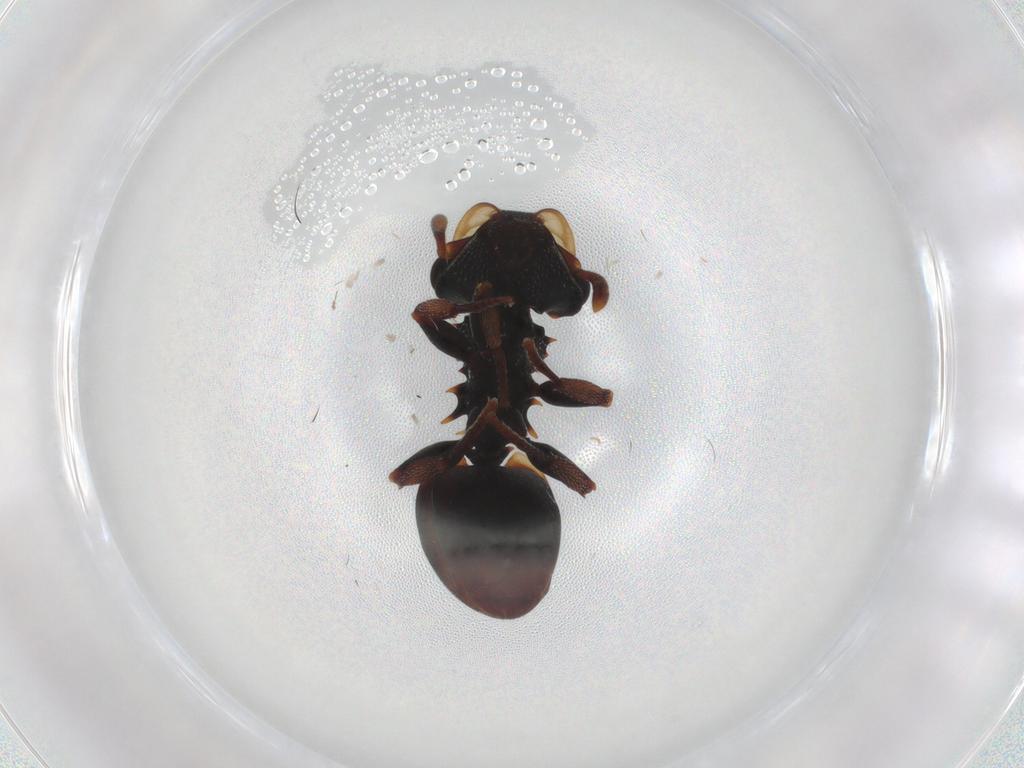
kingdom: Animalia
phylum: Arthropoda
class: Insecta
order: Hymenoptera
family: Formicidae
